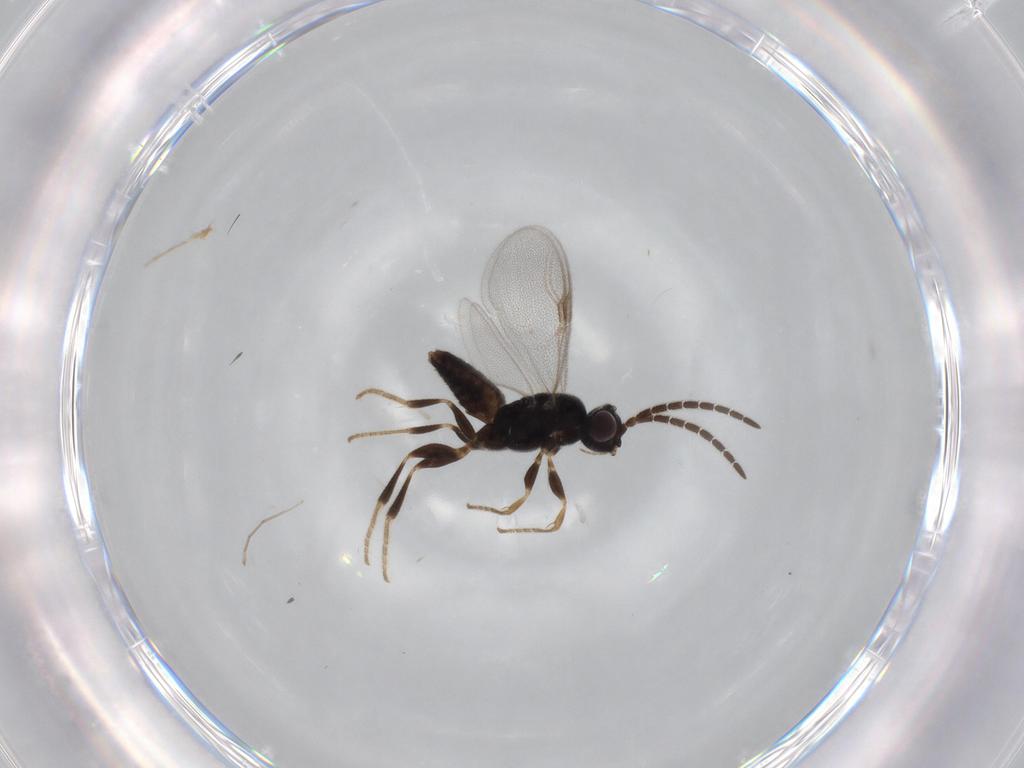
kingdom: Animalia
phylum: Arthropoda
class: Insecta
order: Hymenoptera
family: Dryinidae
